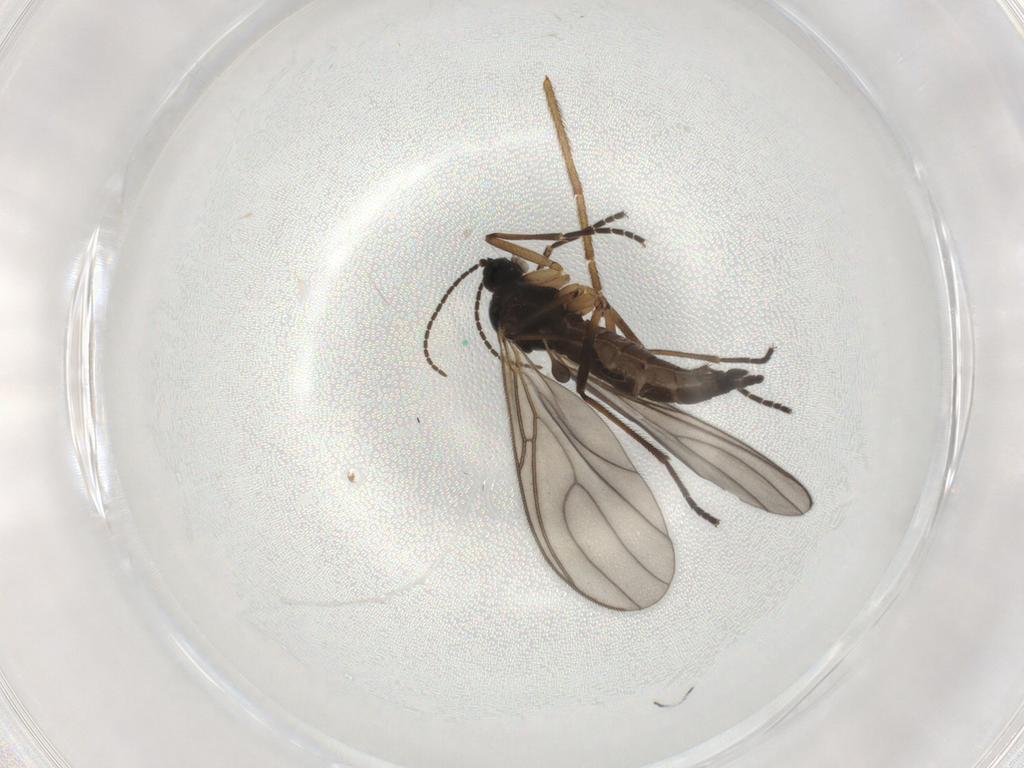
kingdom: Animalia
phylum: Arthropoda
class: Insecta
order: Diptera
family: Sciaridae
